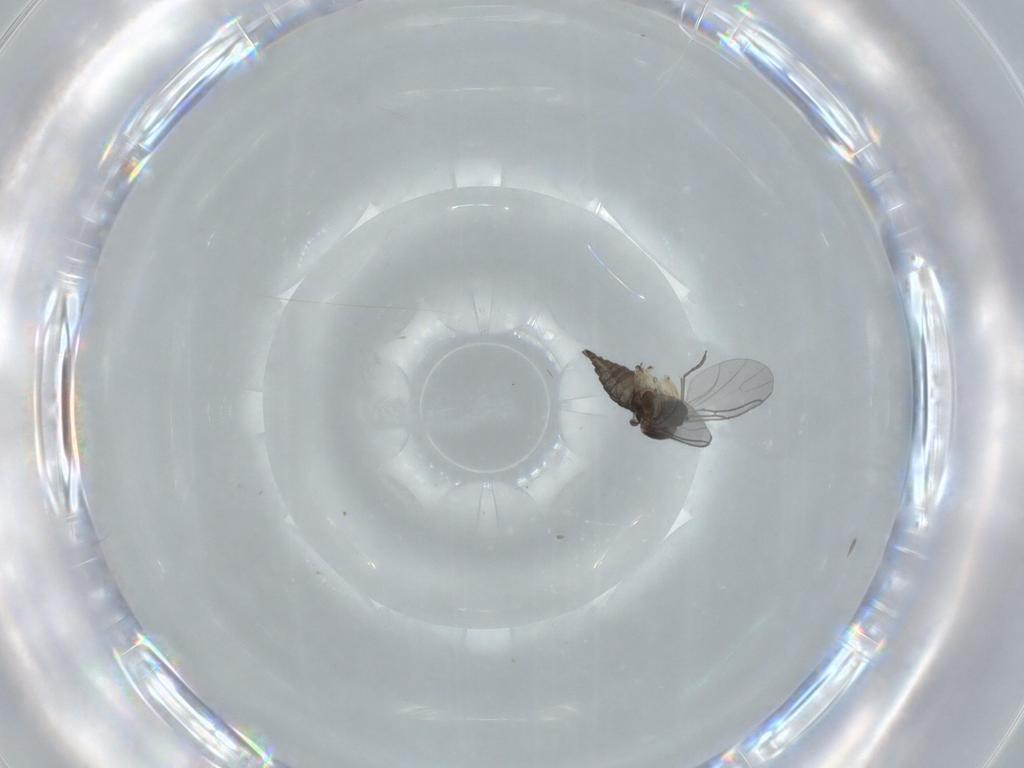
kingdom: Animalia
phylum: Arthropoda
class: Insecta
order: Diptera
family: Sciaridae
